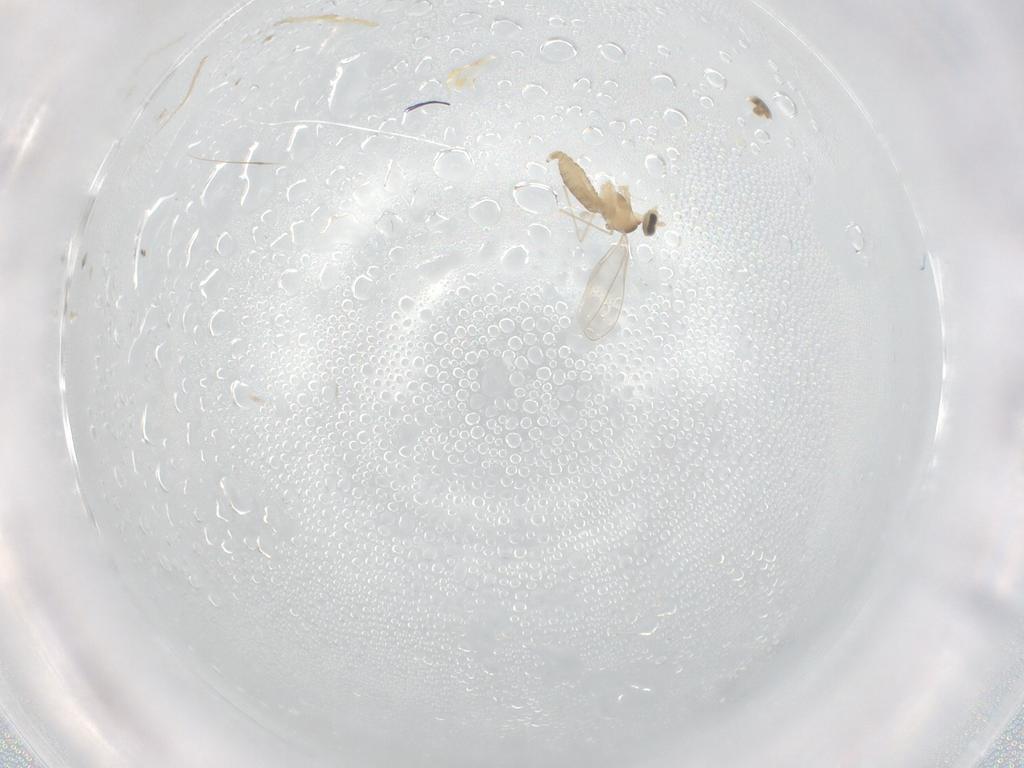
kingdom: Animalia
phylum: Arthropoda
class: Insecta
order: Diptera
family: Cecidomyiidae
